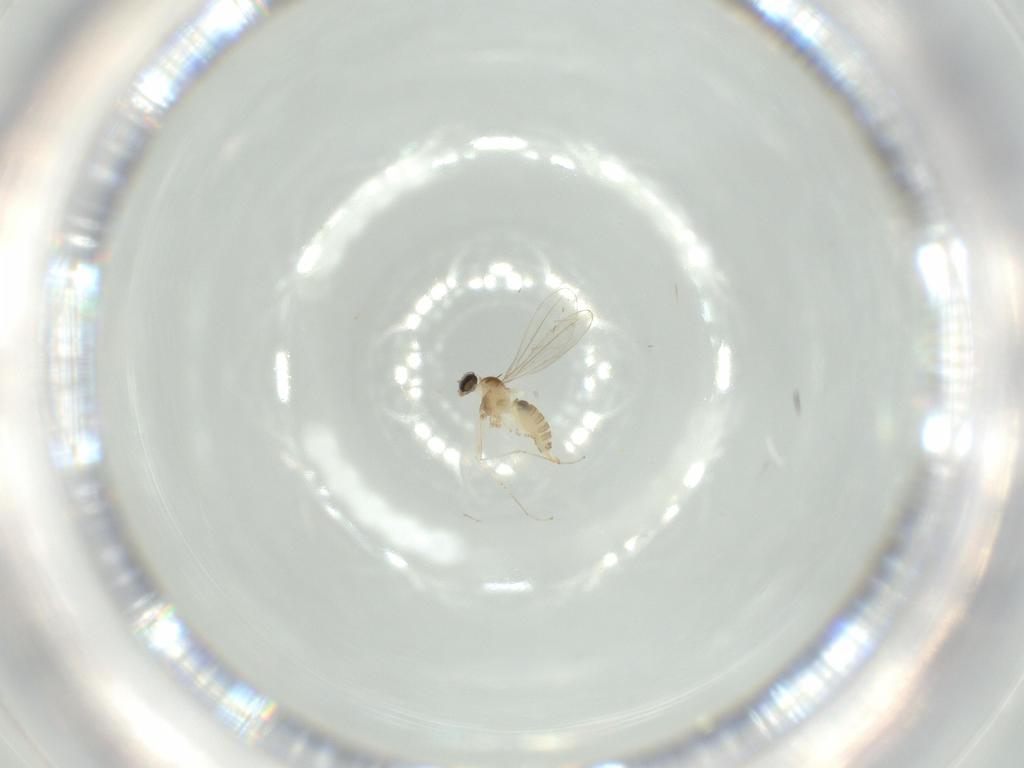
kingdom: Animalia
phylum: Arthropoda
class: Insecta
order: Diptera
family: Cecidomyiidae
